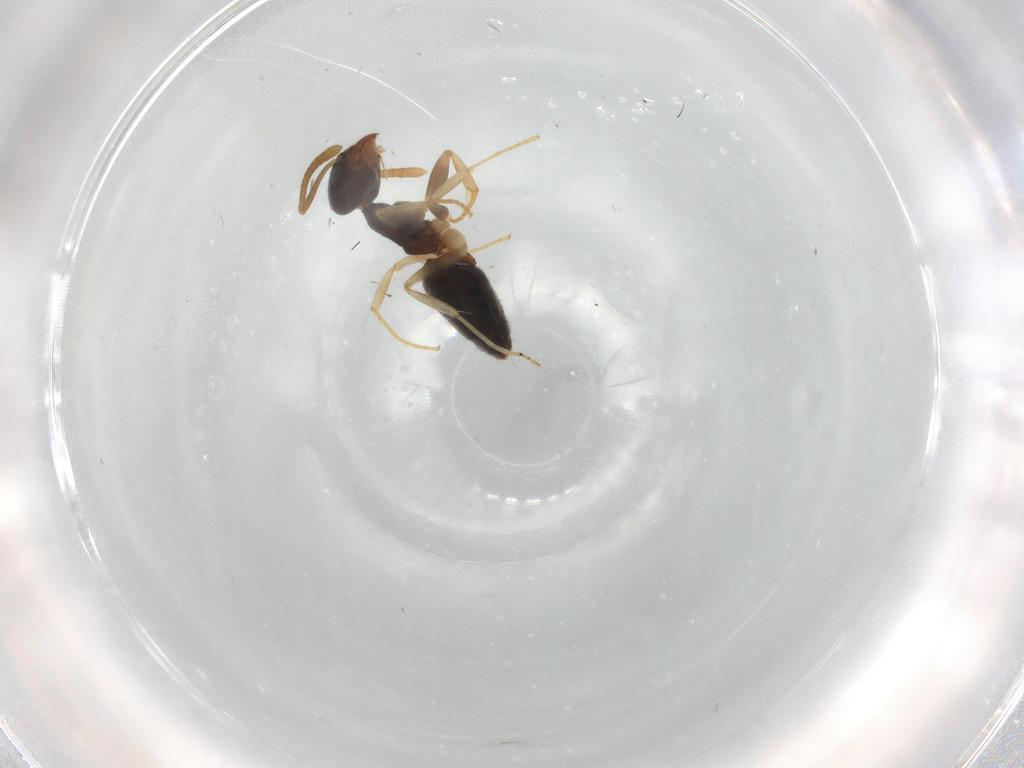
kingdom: Animalia
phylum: Arthropoda
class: Insecta
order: Hymenoptera
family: Formicidae
